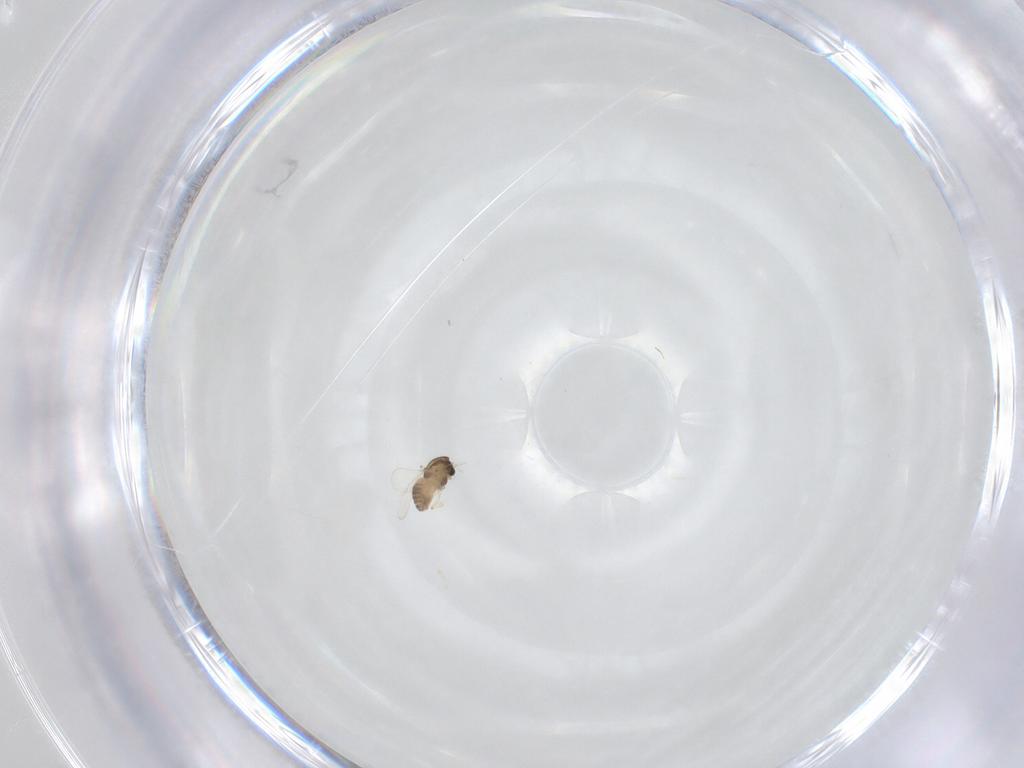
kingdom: Animalia
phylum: Arthropoda
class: Insecta
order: Diptera
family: Chironomidae
